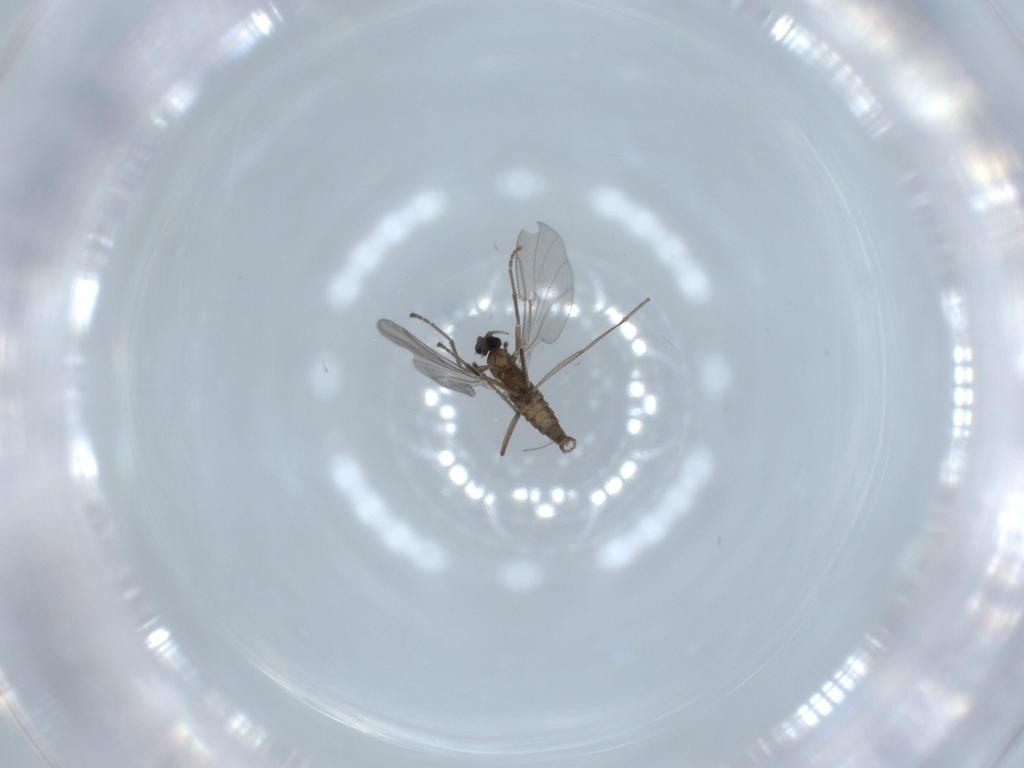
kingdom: Animalia
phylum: Arthropoda
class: Insecta
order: Diptera
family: Cecidomyiidae
